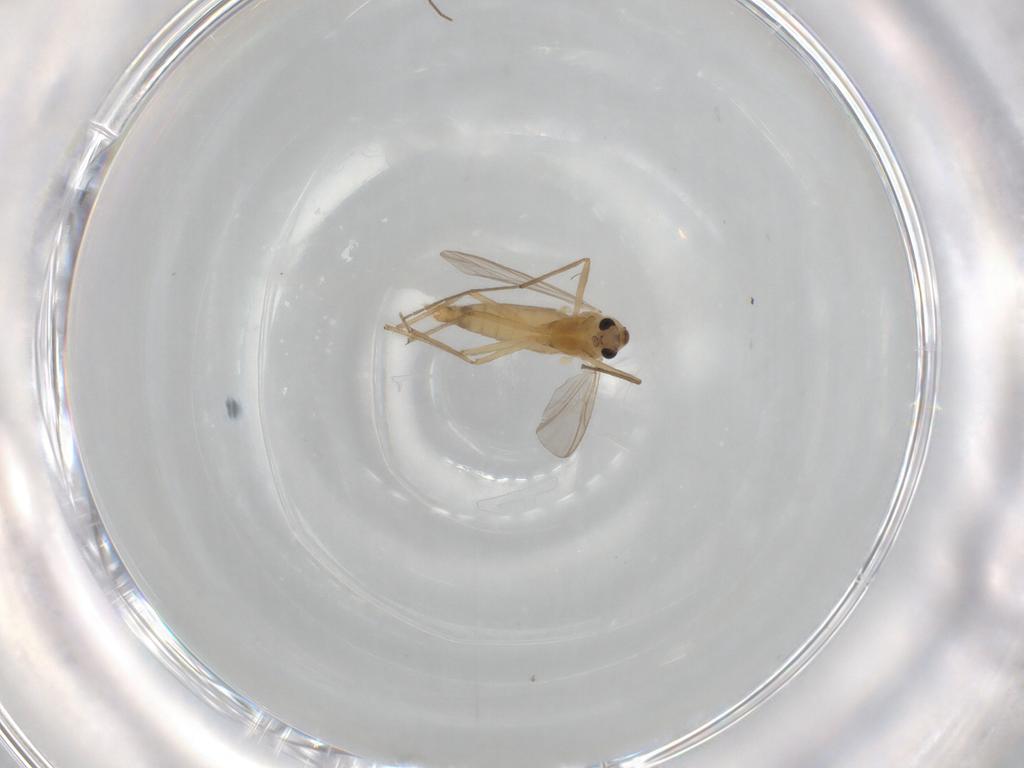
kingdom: Animalia
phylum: Arthropoda
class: Insecta
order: Diptera
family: Chironomidae
